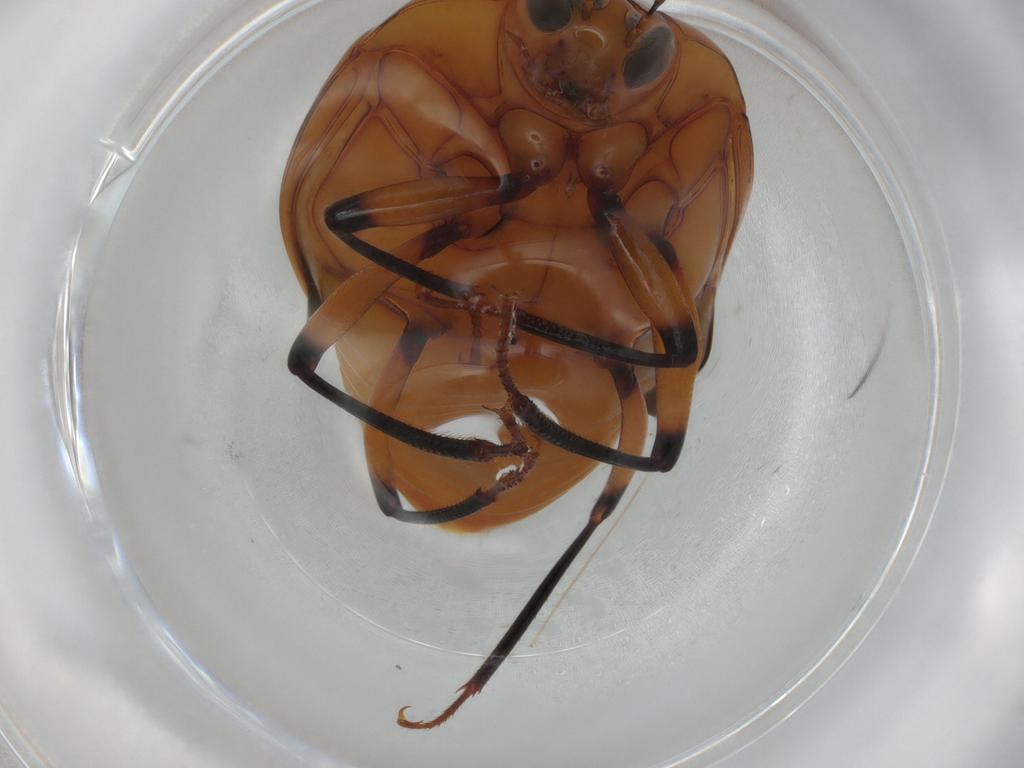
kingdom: Animalia
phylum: Arthropoda
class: Insecta
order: Coleoptera
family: Staphylinidae
